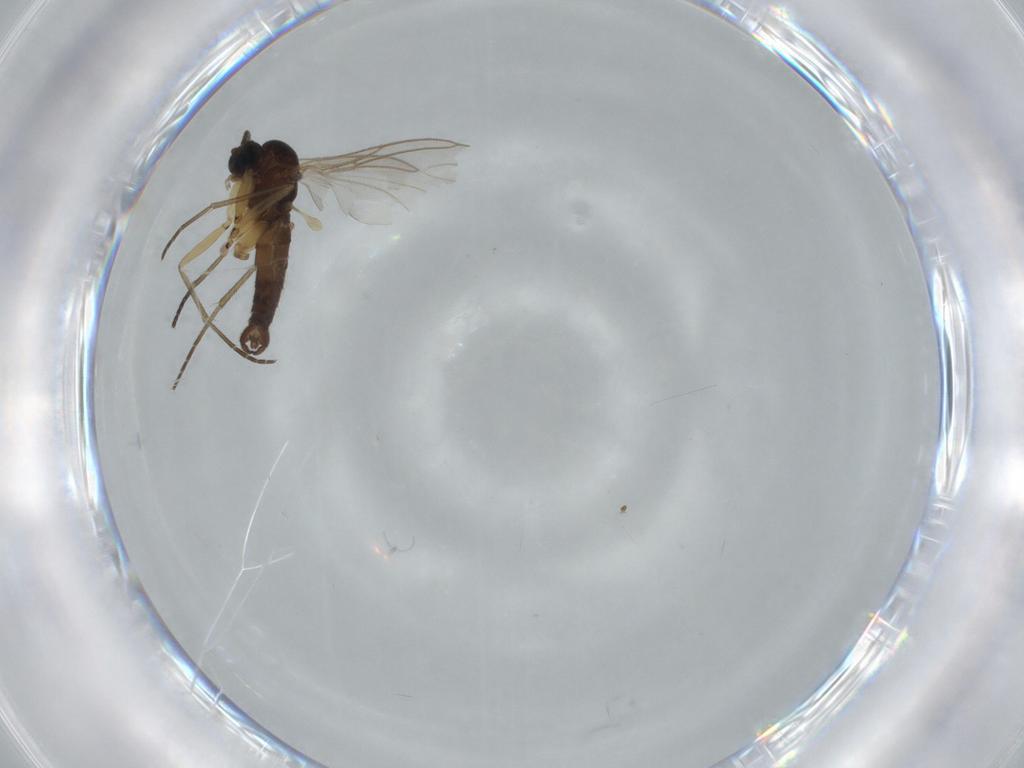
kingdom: Animalia
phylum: Arthropoda
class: Insecta
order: Diptera
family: Sciaridae
